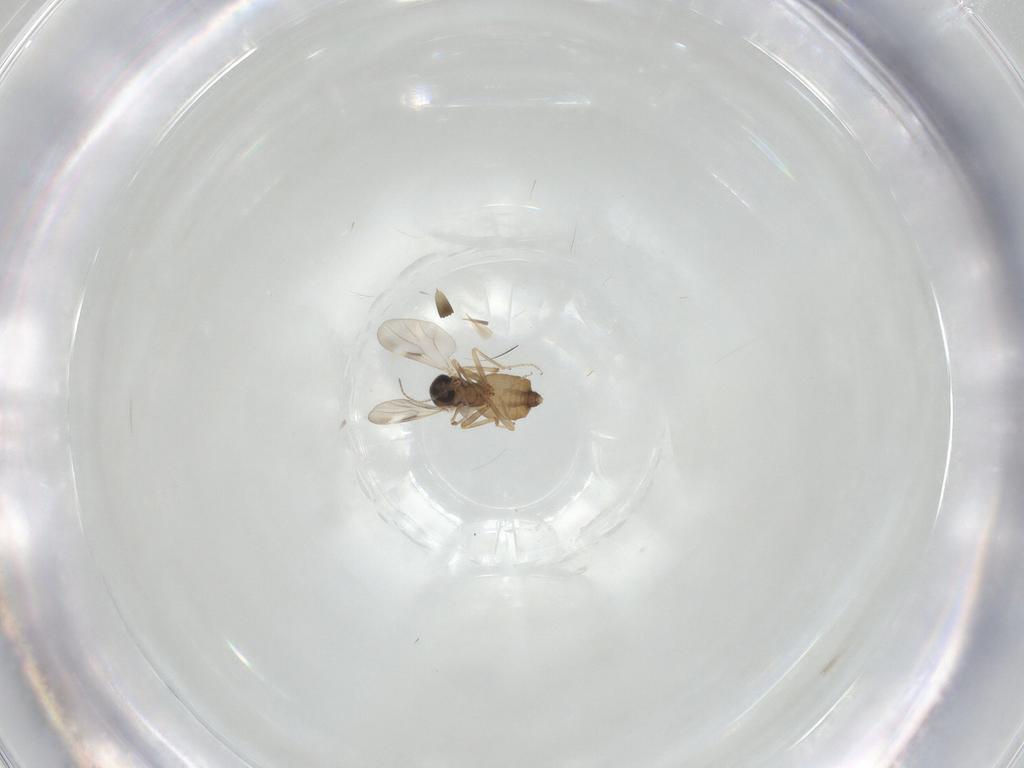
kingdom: Animalia
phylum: Arthropoda
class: Insecta
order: Diptera
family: Ceratopogonidae
